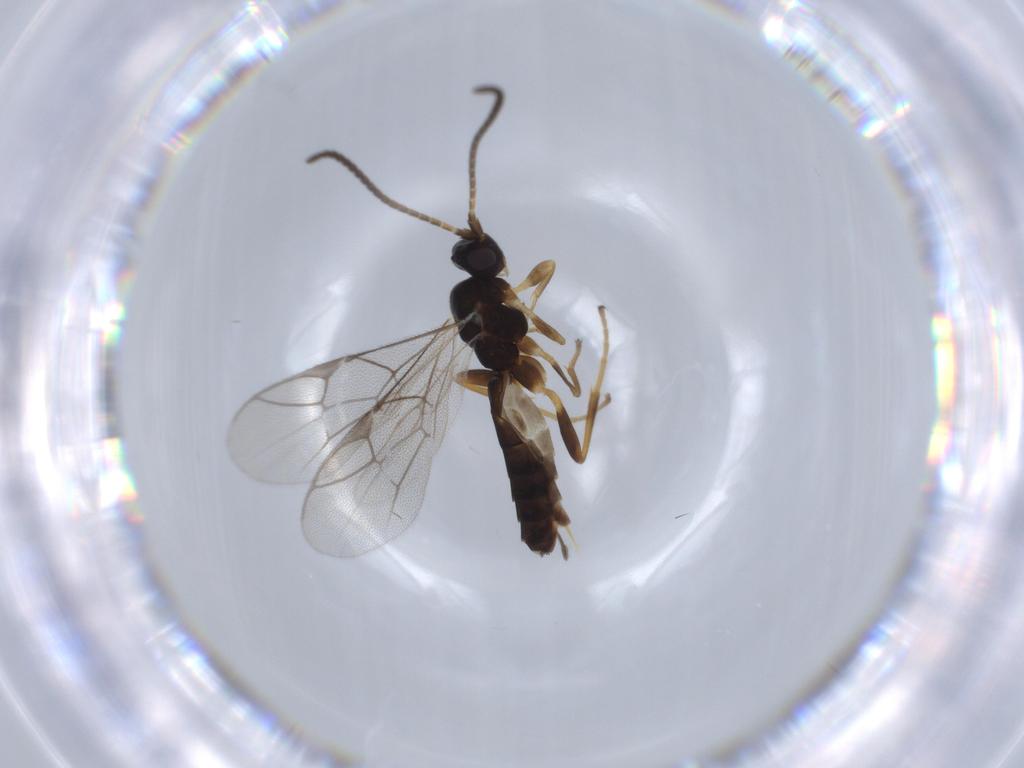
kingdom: Animalia
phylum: Arthropoda
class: Insecta
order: Hymenoptera
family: Ichneumonidae
